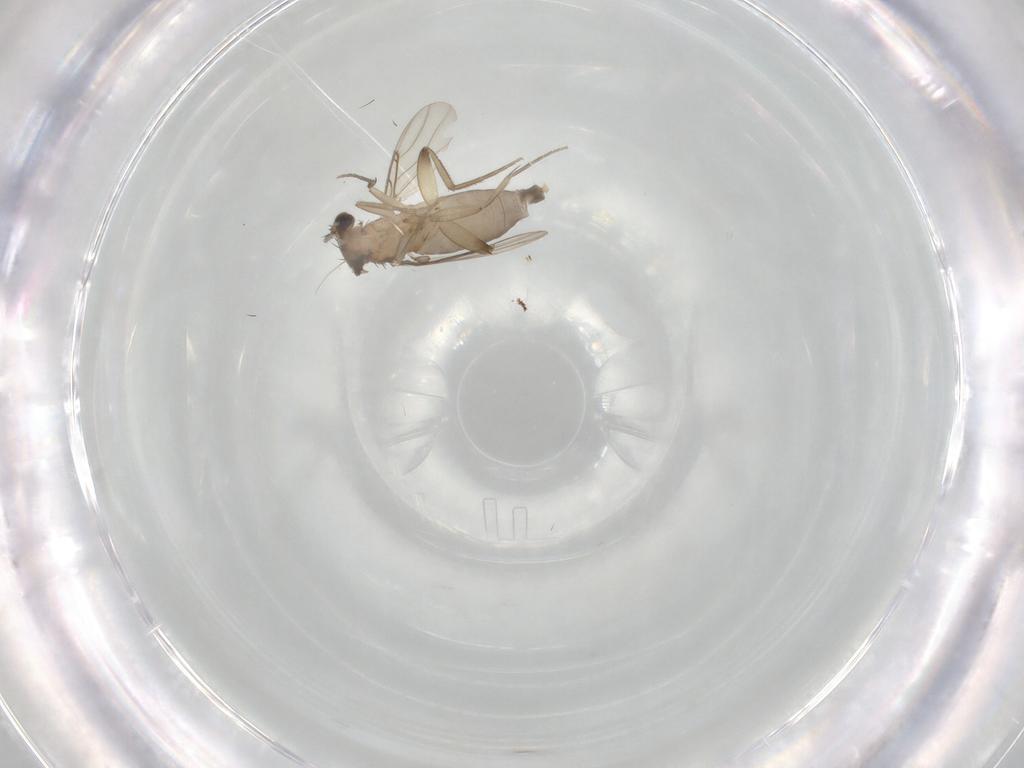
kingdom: Animalia
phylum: Arthropoda
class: Insecta
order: Diptera
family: Phoridae
